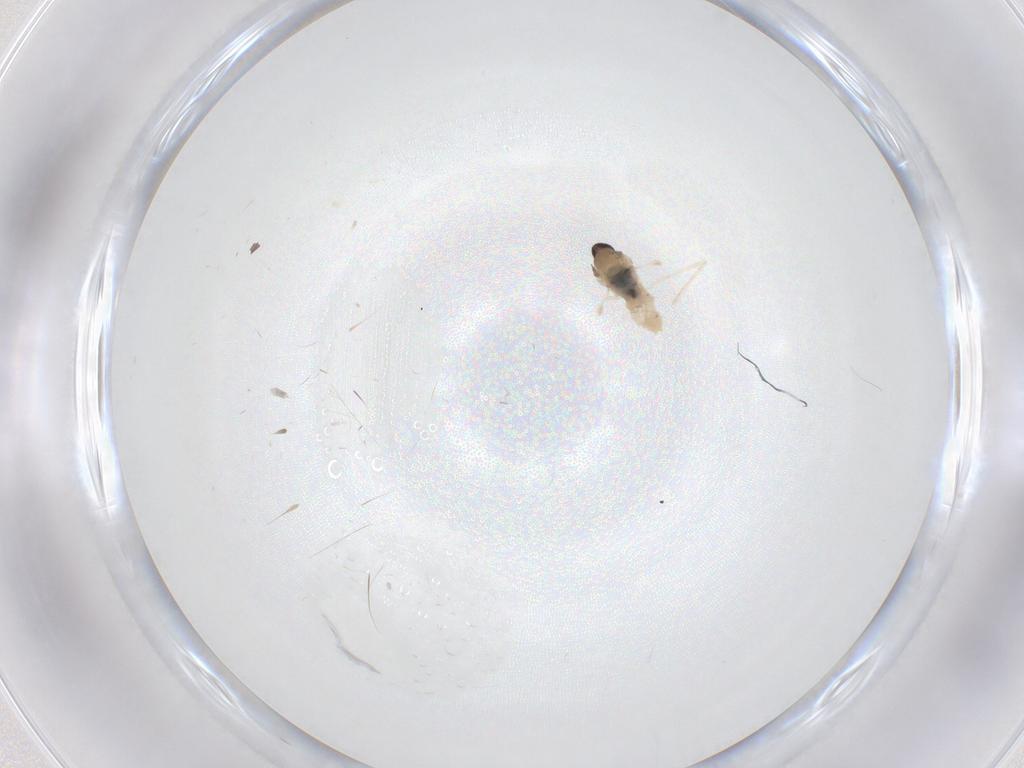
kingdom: Animalia
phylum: Arthropoda
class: Insecta
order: Diptera
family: Cecidomyiidae
